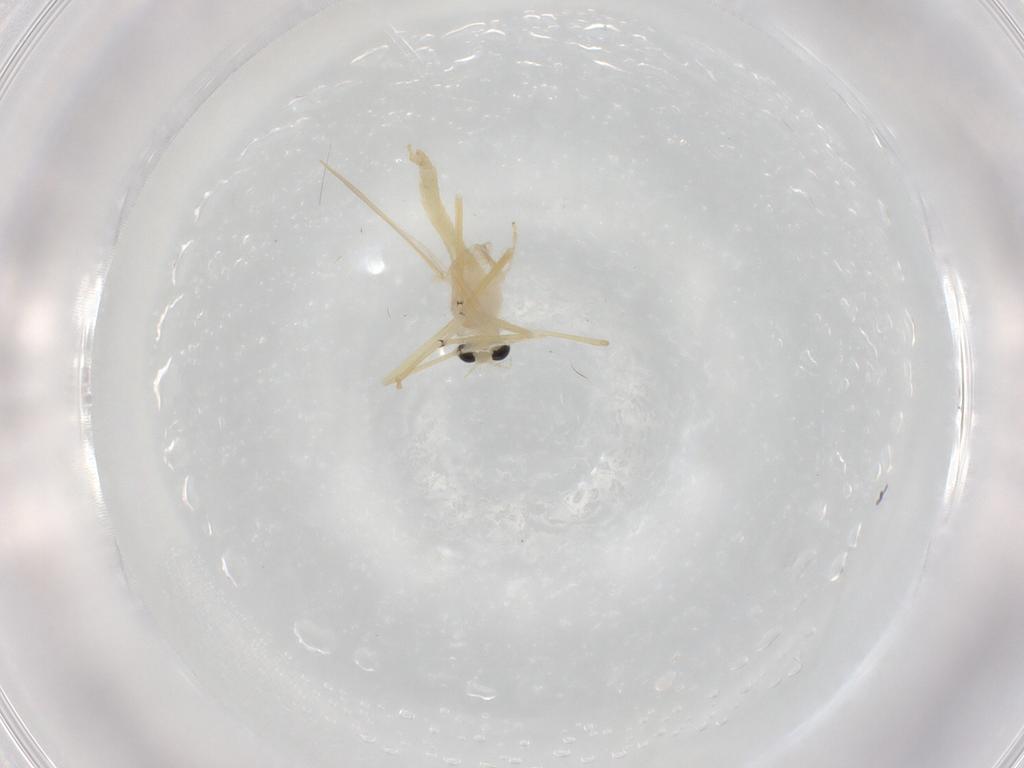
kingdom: Animalia
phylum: Arthropoda
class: Insecta
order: Diptera
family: Chironomidae
